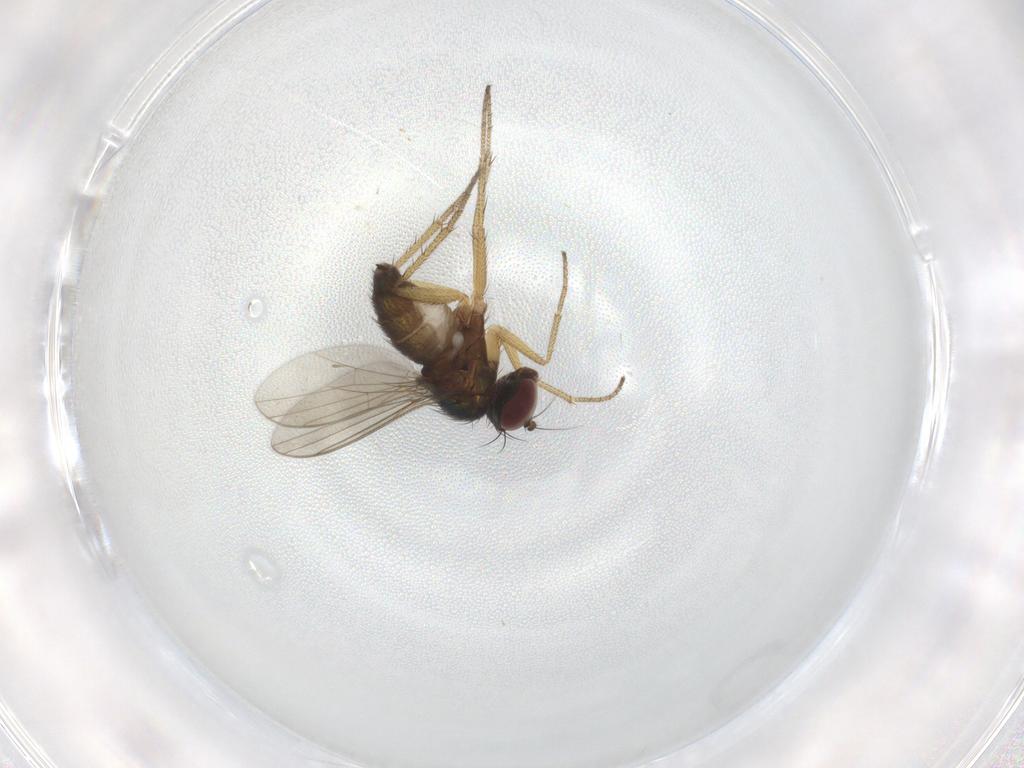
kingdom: Animalia
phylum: Arthropoda
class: Insecta
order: Diptera
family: Dolichopodidae
